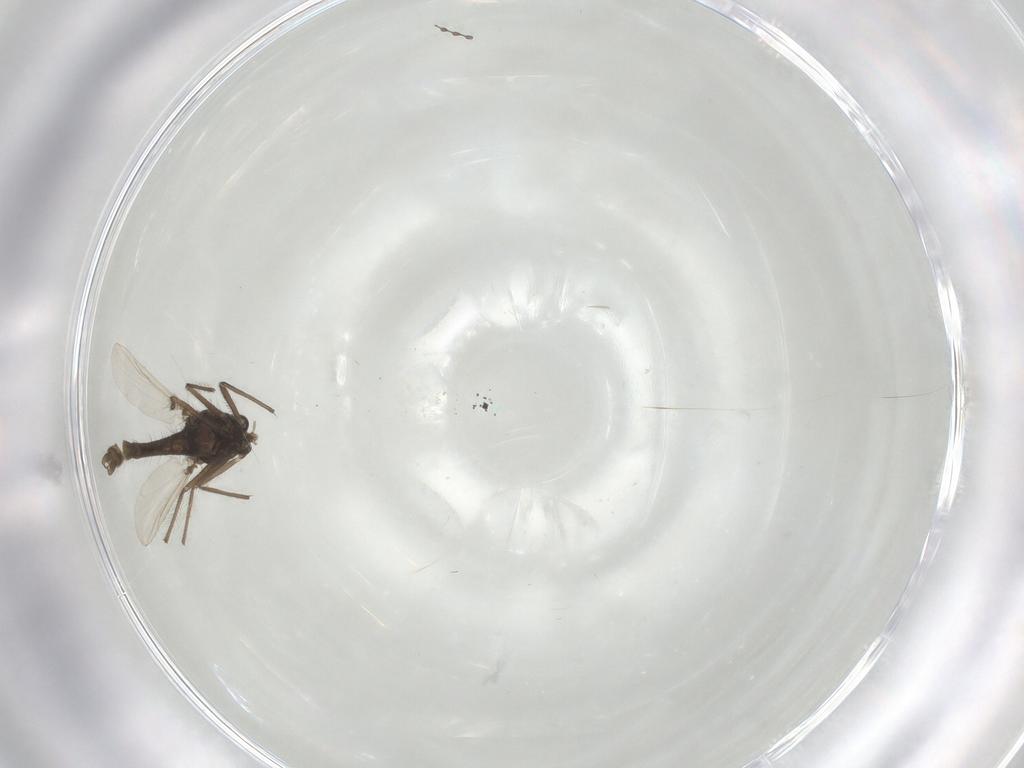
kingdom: Animalia
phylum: Arthropoda
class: Insecta
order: Diptera
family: Chironomidae
